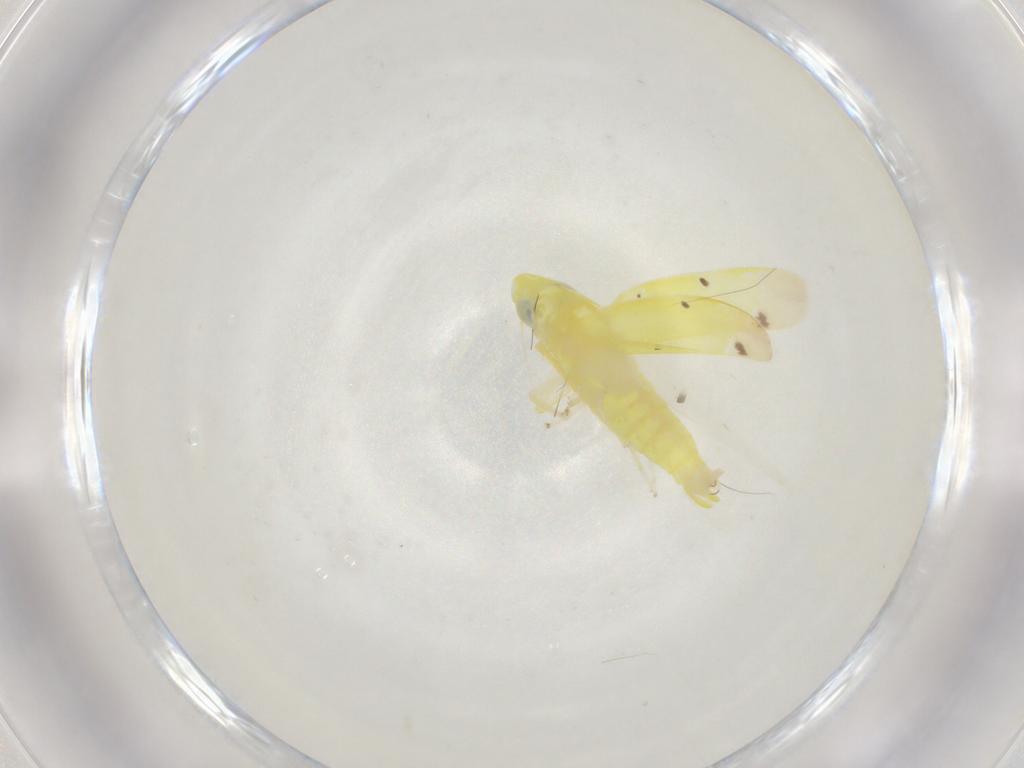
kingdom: Animalia
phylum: Arthropoda
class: Insecta
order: Hemiptera
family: Cicadellidae
